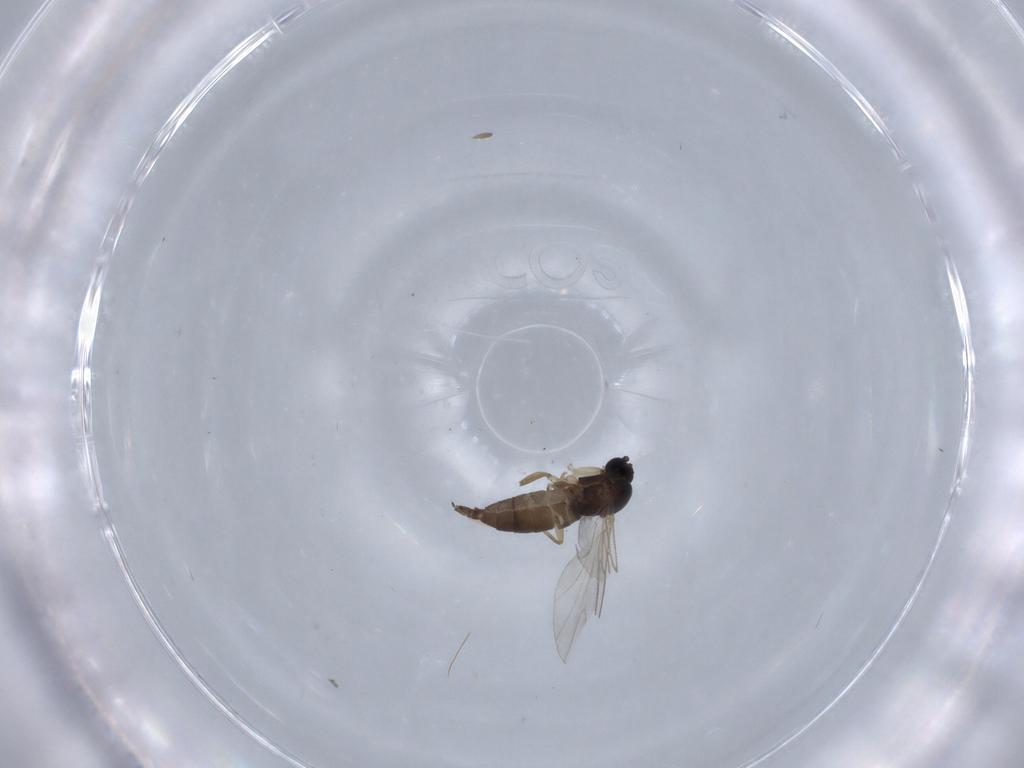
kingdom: Animalia
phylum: Arthropoda
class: Insecta
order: Diptera
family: Sciaridae
